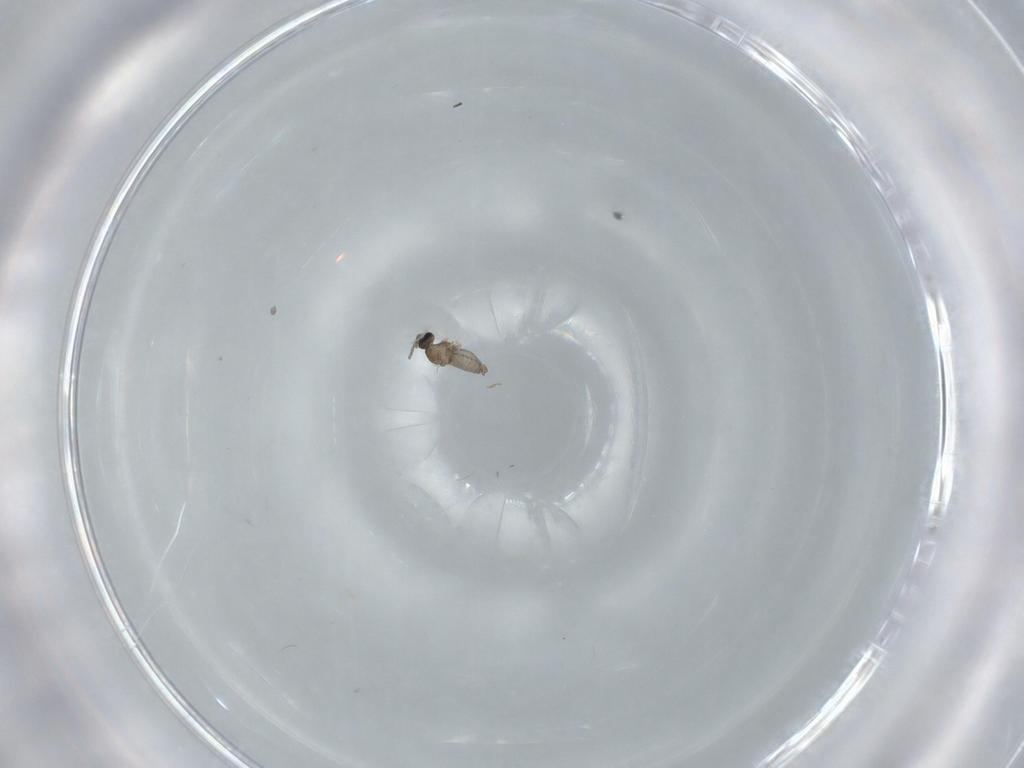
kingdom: Animalia
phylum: Arthropoda
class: Insecta
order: Diptera
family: Cecidomyiidae
